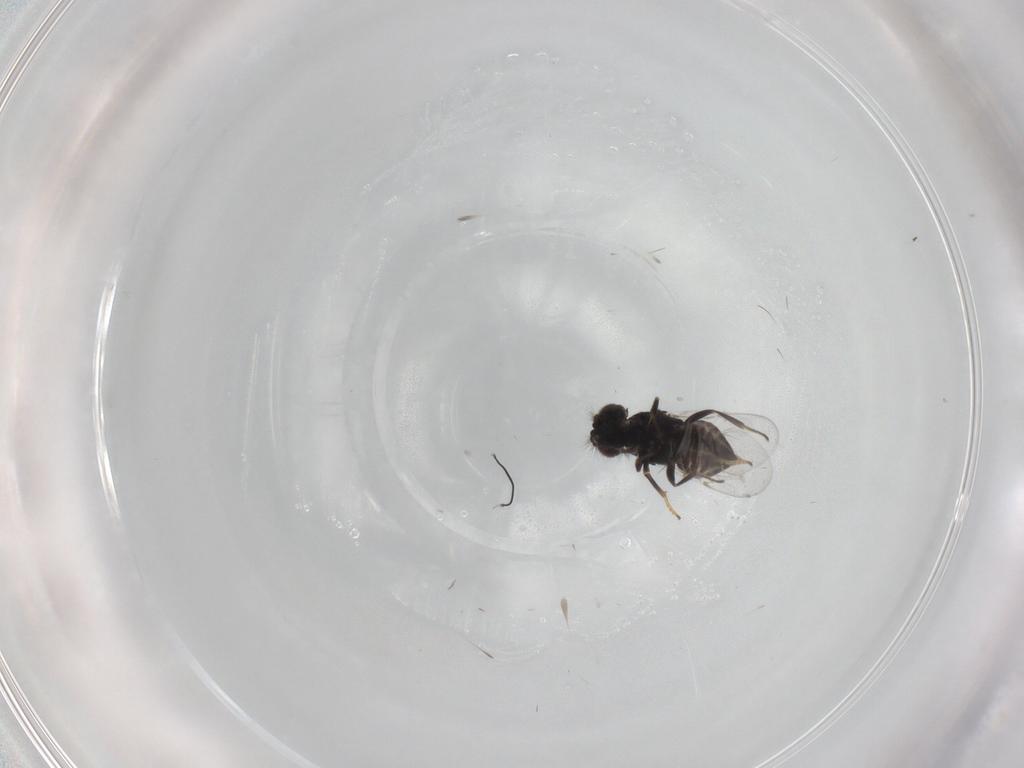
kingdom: Animalia
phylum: Arthropoda
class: Insecta
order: Hymenoptera
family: Encyrtidae
